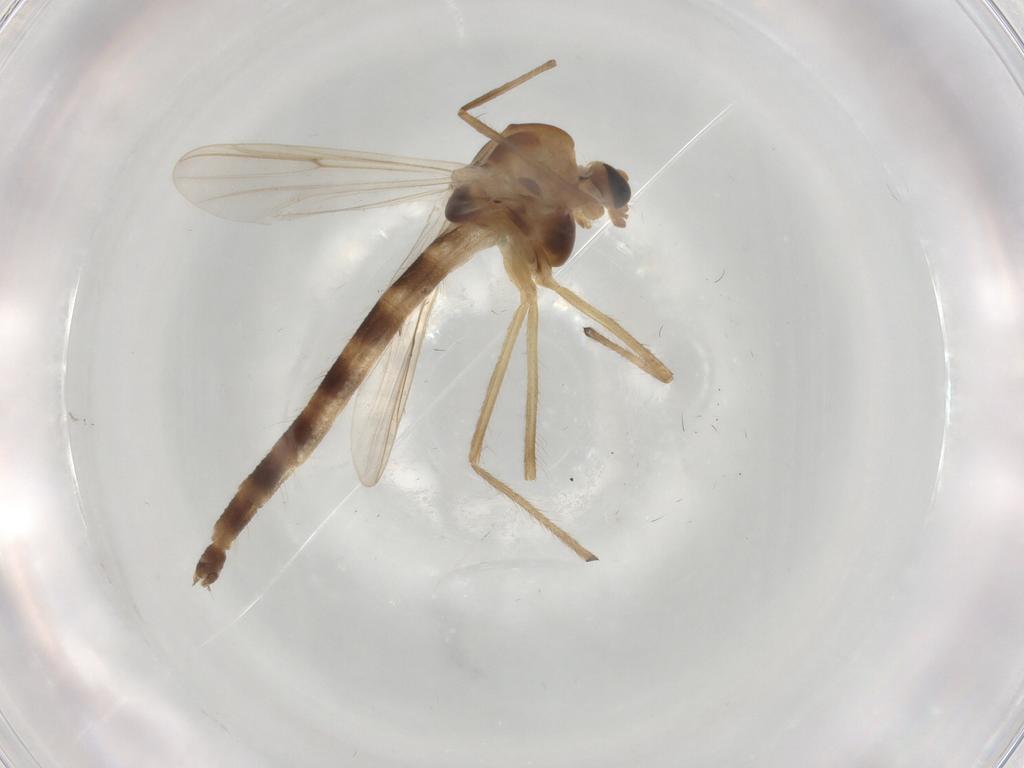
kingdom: Animalia
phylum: Arthropoda
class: Insecta
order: Diptera
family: Chironomidae
